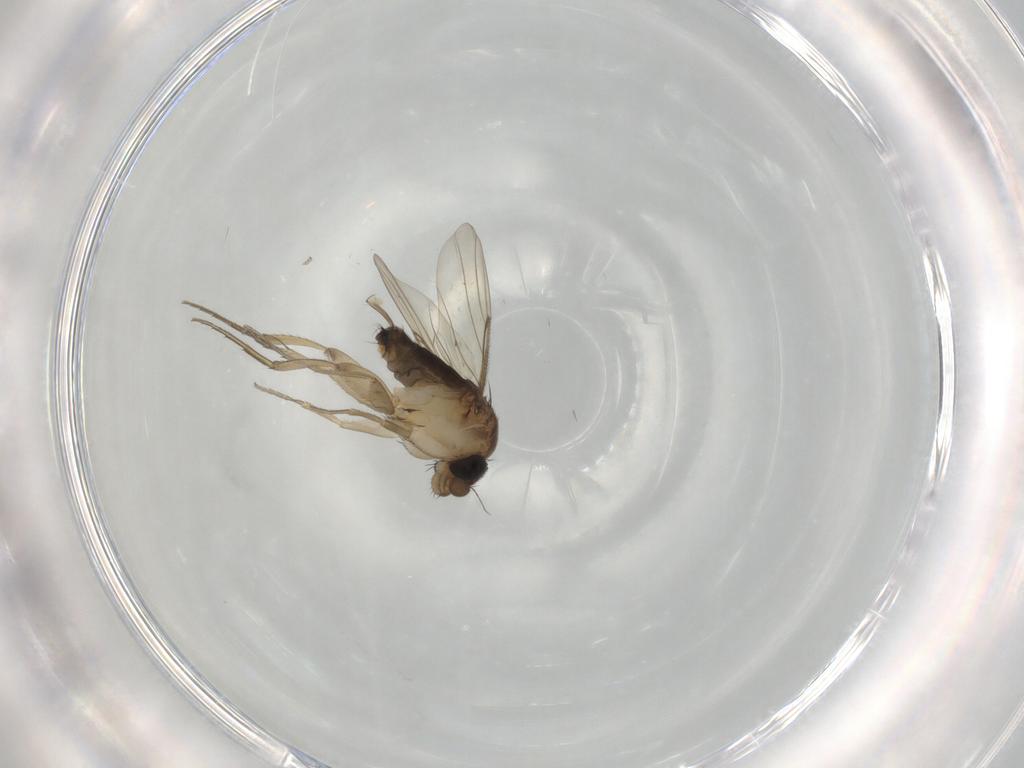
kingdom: Animalia
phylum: Arthropoda
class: Insecta
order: Diptera
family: Phoridae
